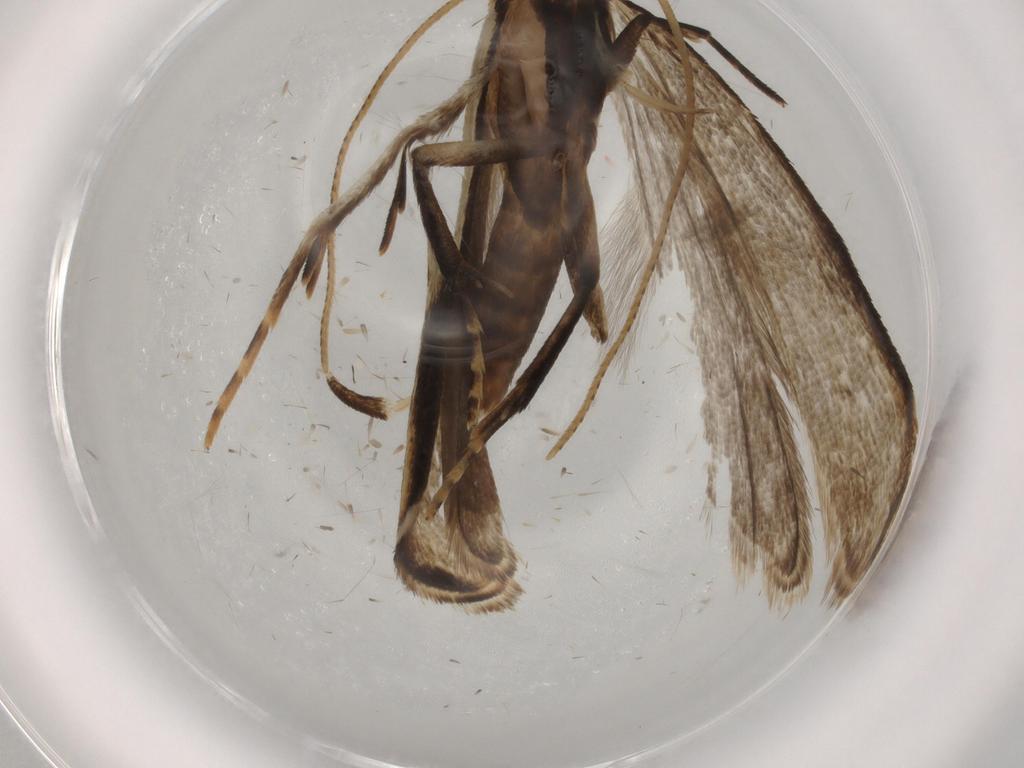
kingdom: Animalia
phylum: Arthropoda
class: Insecta
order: Lepidoptera
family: Gelechiidae
